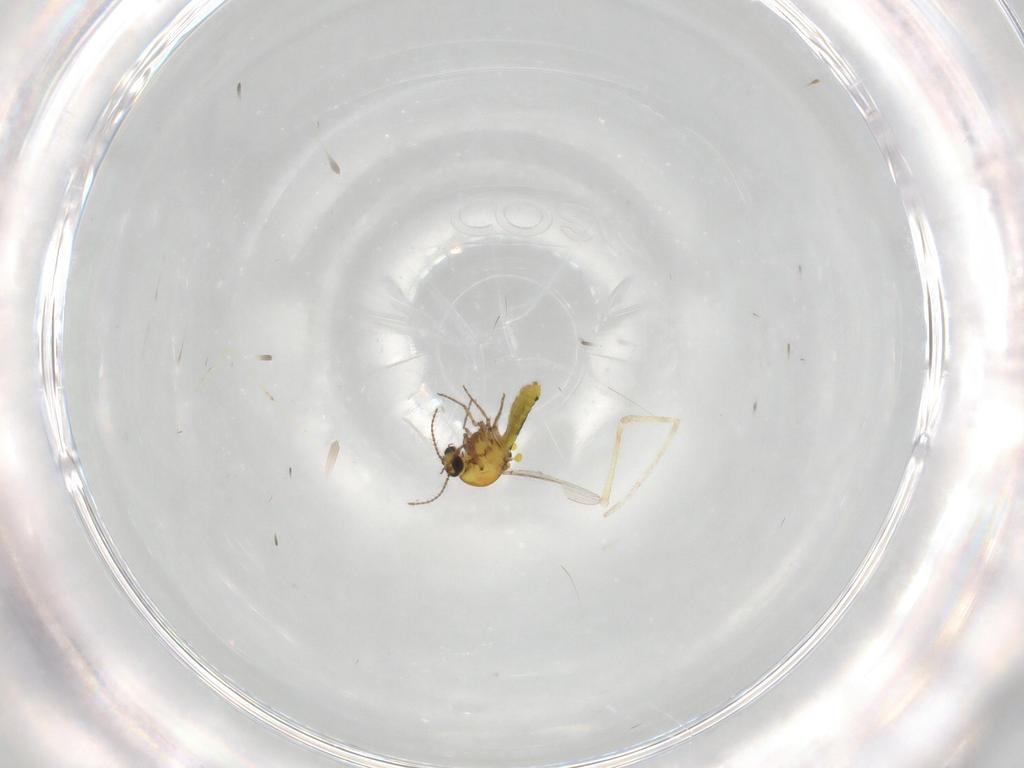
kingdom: Animalia
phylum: Arthropoda
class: Insecta
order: Diptera
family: Ceratopogonidae
